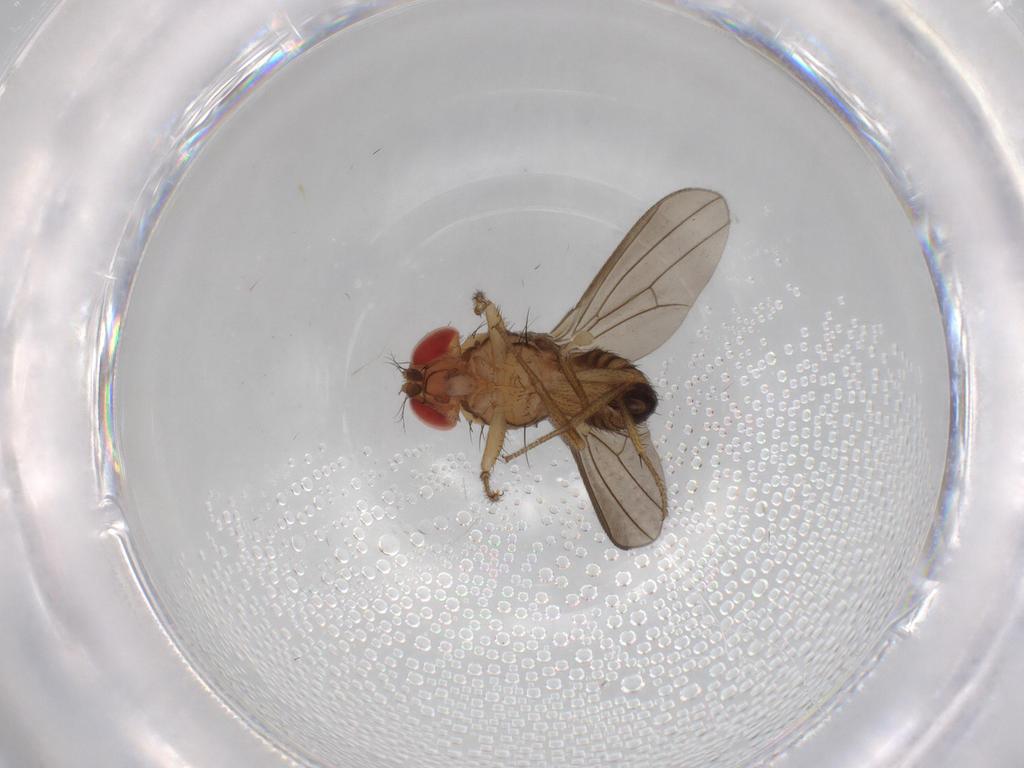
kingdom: Animalia
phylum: Arthropoda
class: Insecta
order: Diptera
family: Drosophilidae
